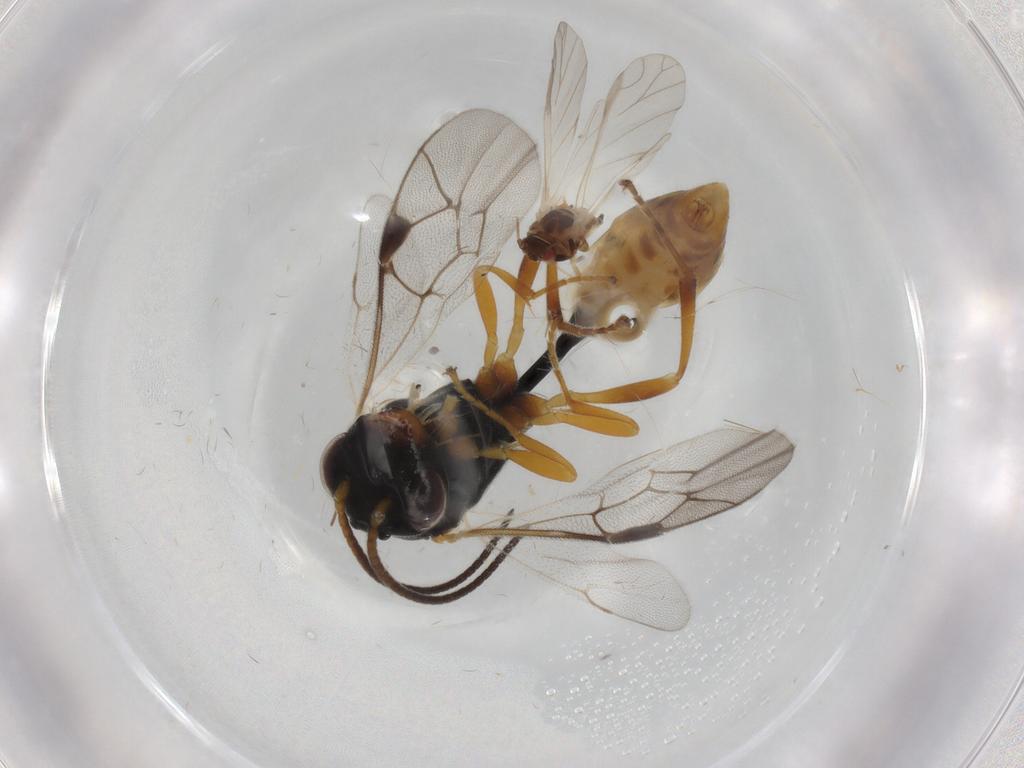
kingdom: Animalia
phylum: Arthropoda
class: Insecta
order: Hymenoptera
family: Ichneumonidae
